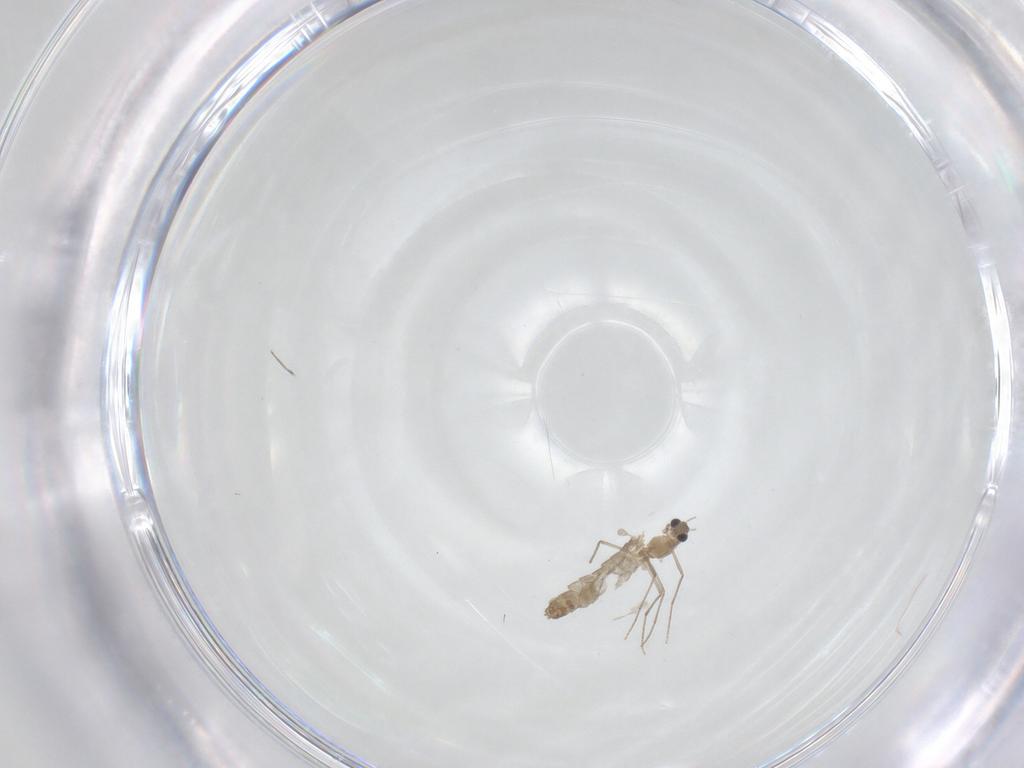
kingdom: Animalia
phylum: Arthropoda
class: Insecta
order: Diptera
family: Chironomidae
